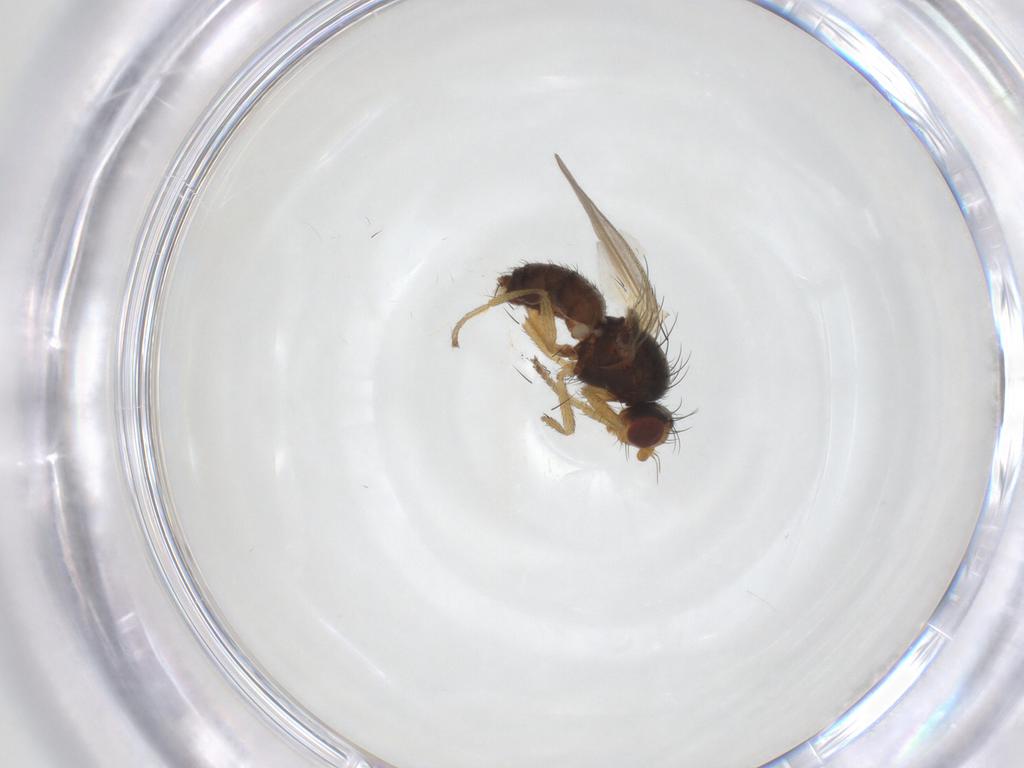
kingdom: Animalia
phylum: Arthropoda
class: Insecta
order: Diptera
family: Heleomyzidae
